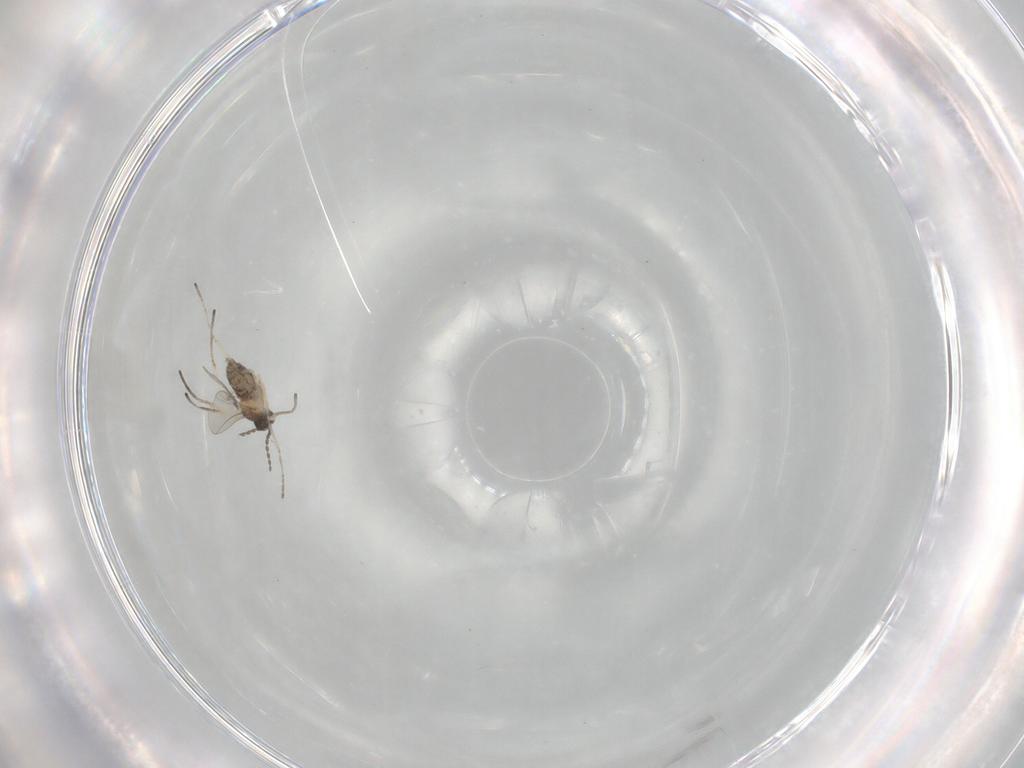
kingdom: Animalia
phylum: Arthropoda
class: Insecta
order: Diptera
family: Cecidomyiidae
